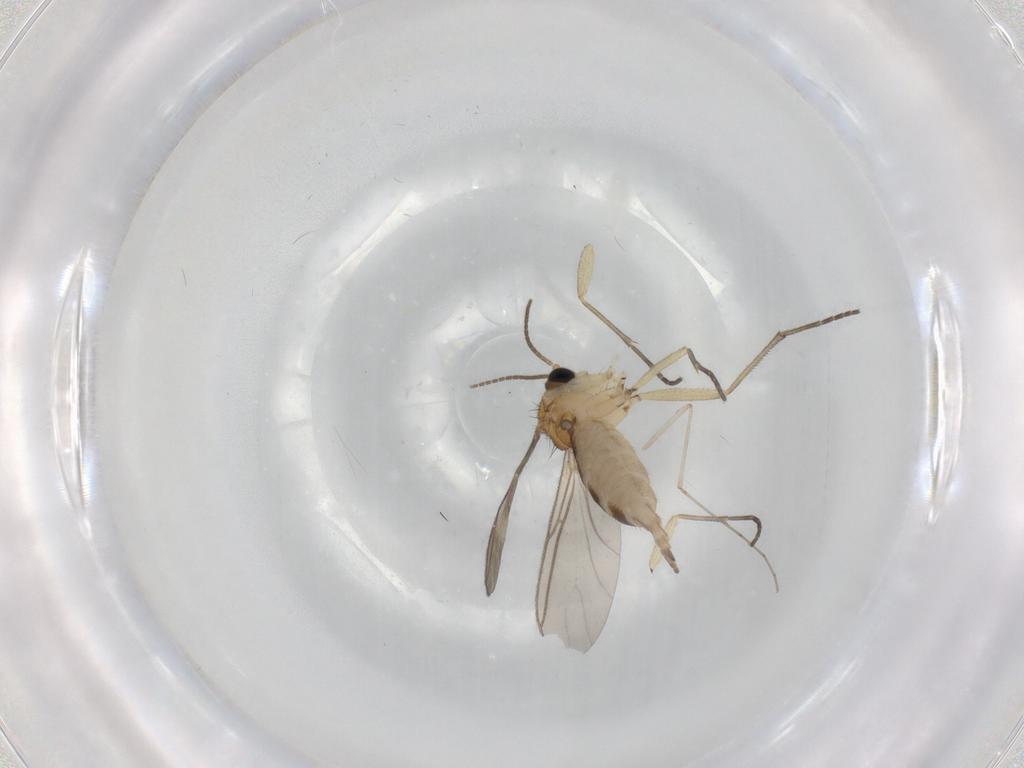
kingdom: Animalia
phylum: Arthropoda
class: Insecta
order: Diptera
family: Sciaridae
